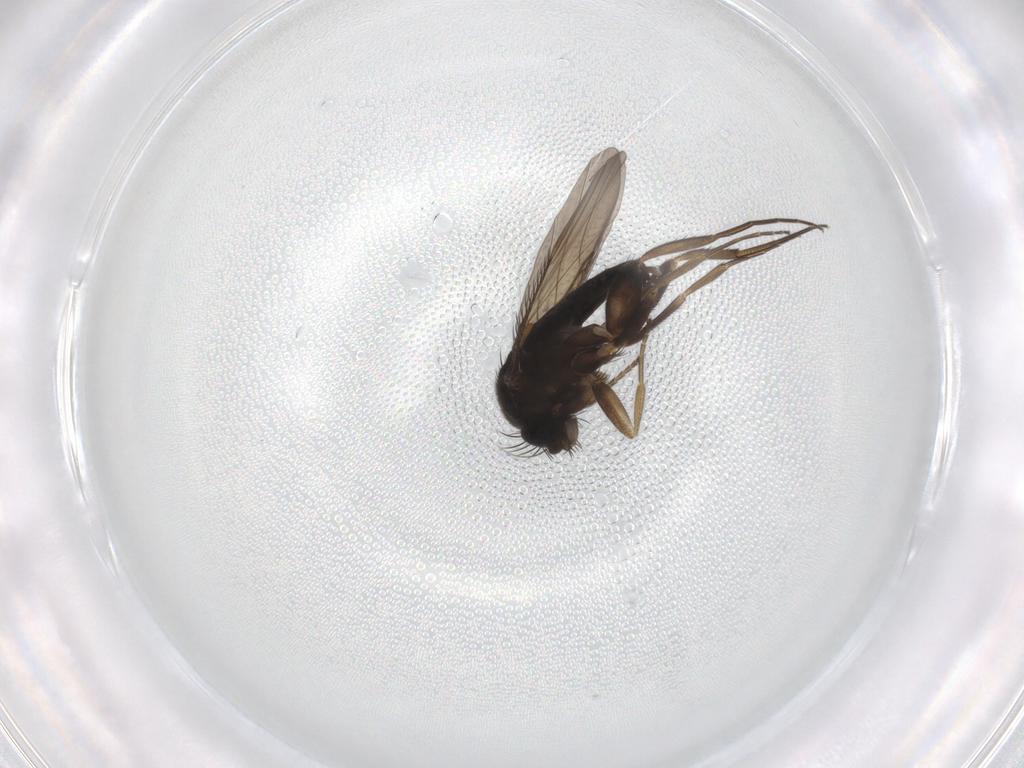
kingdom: Animalia
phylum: Arthropoda
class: Insecta
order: Diptera
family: Phoridae
